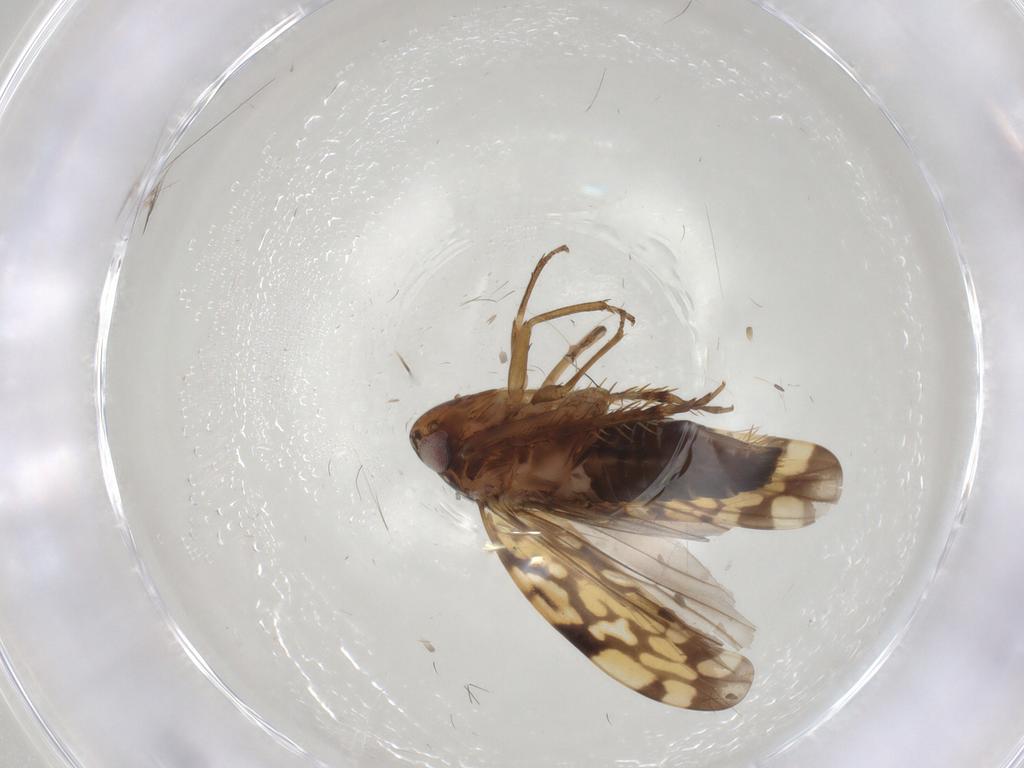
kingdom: Animalia
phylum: Arthropoda
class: Insecta
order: Hemiptera
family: Cicadellidae
